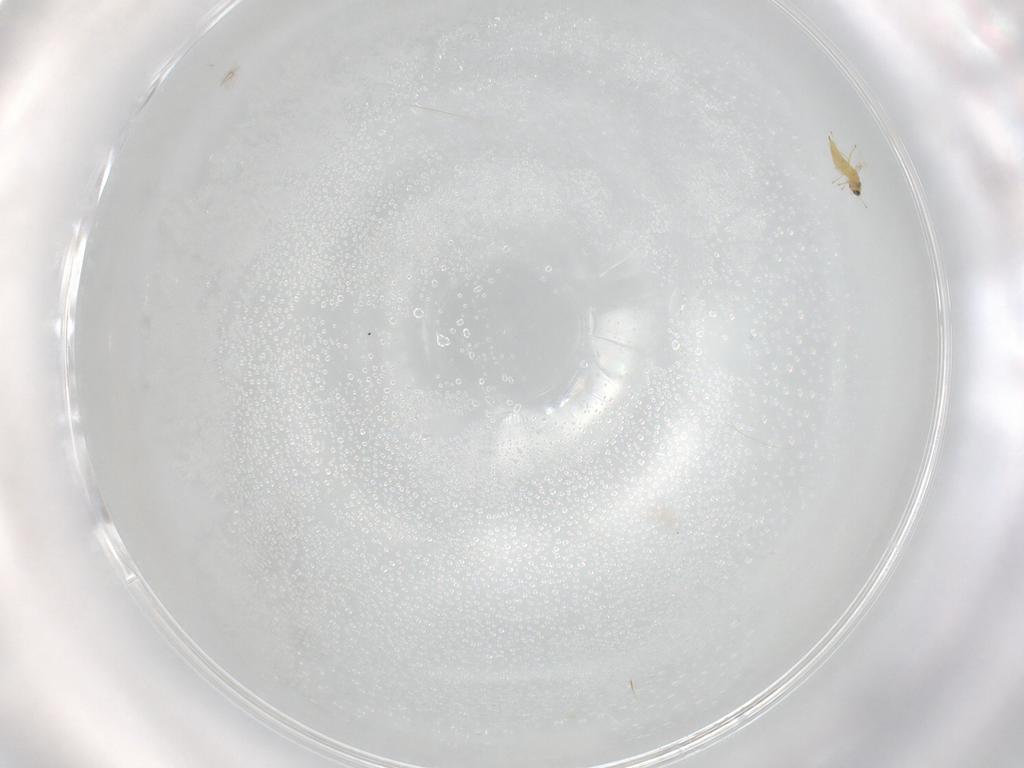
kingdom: Animalia
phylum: Arthropoda
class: Insecta
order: Hymenoptera
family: Mymaridae
